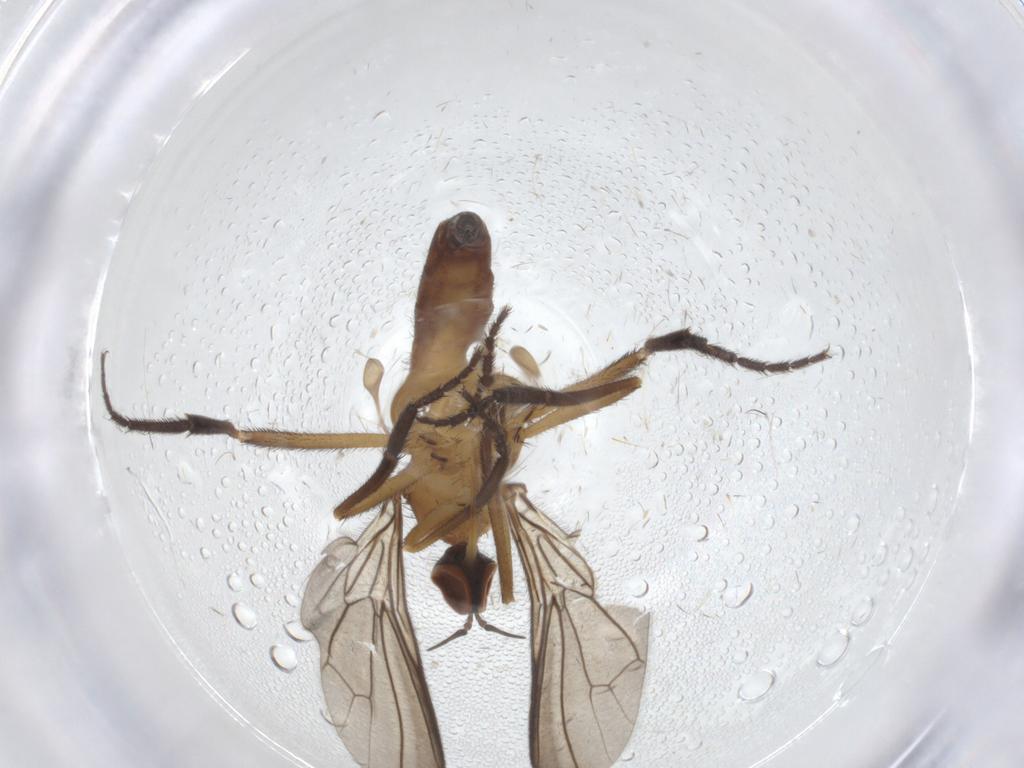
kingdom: Animalia
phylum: Arthropoda
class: Insecta
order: Diptera
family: Empididae
